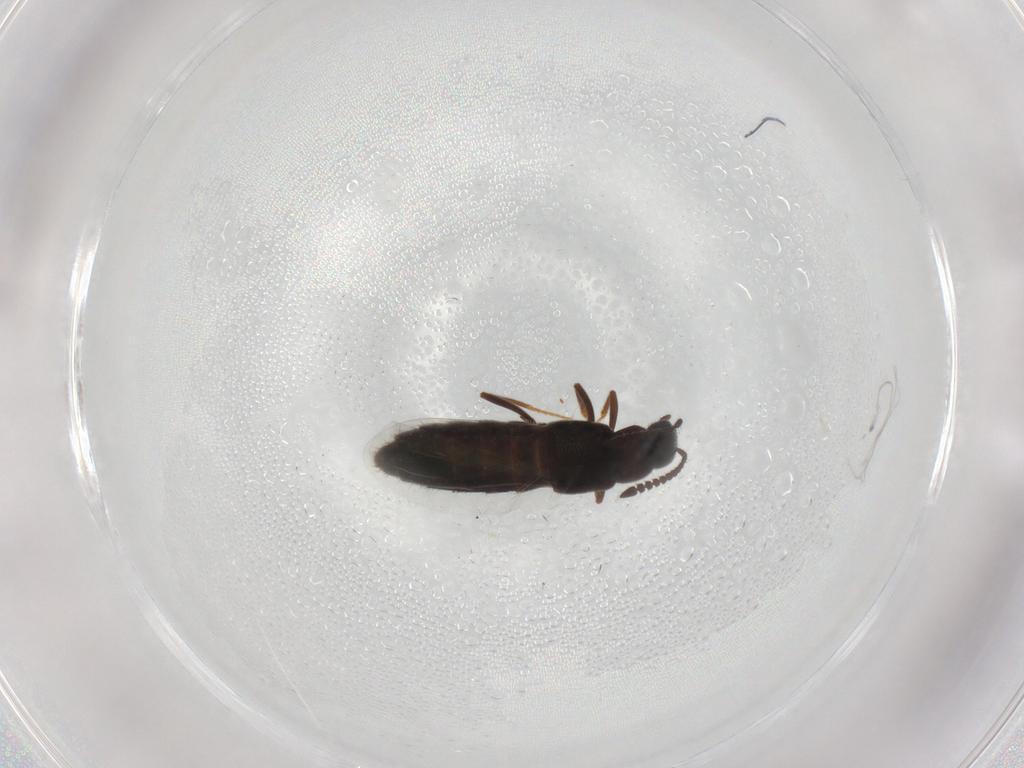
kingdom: Animalia
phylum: Arthropoda
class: Insecta
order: Coleoptera
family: Staphylinidae
